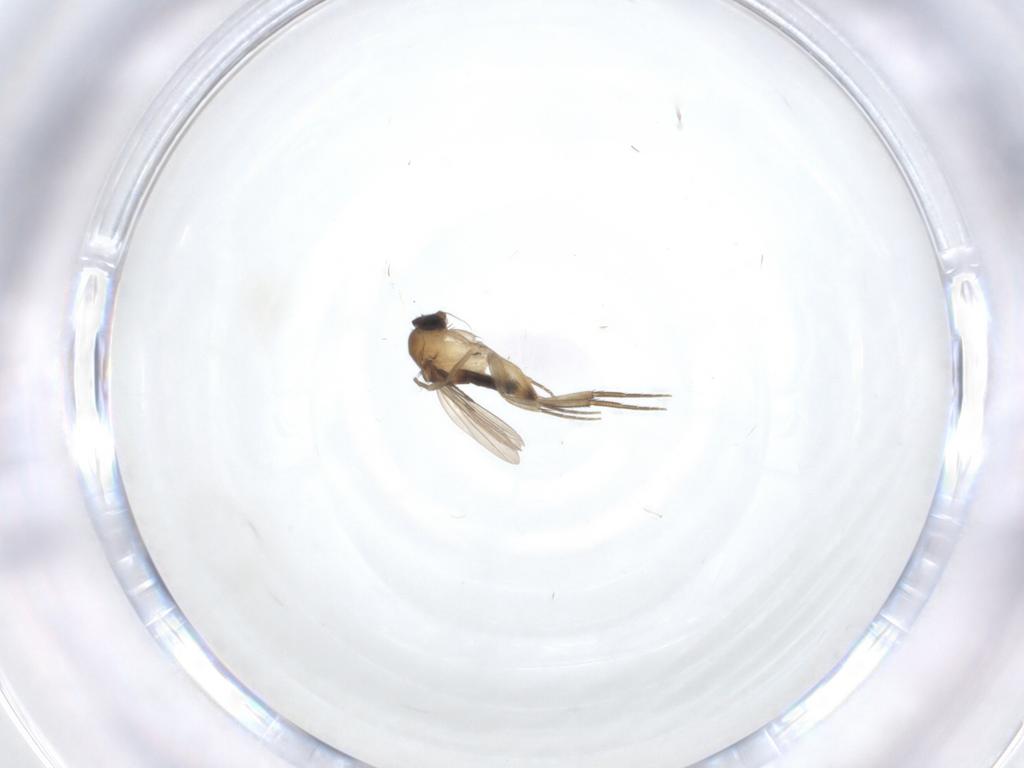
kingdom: Animalia
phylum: Arthropoda
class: Insecta
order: Diptera
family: Phoridae
